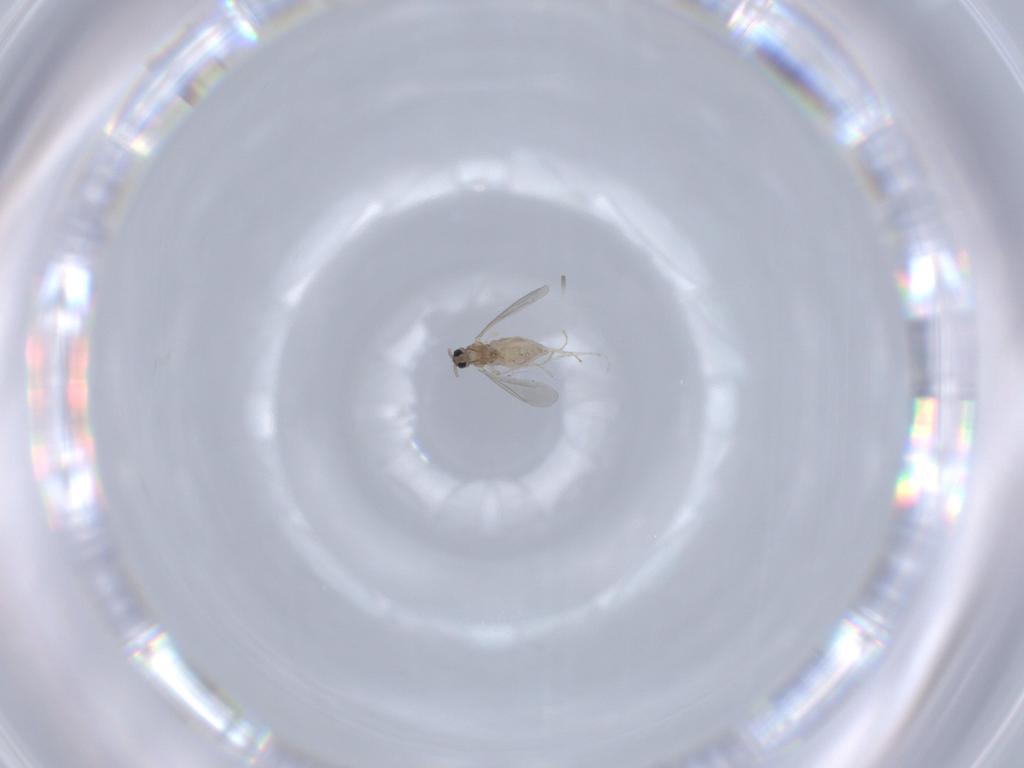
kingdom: Animalia
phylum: Arthropoda
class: Insecta
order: Diptera
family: Cecidomyiidae
